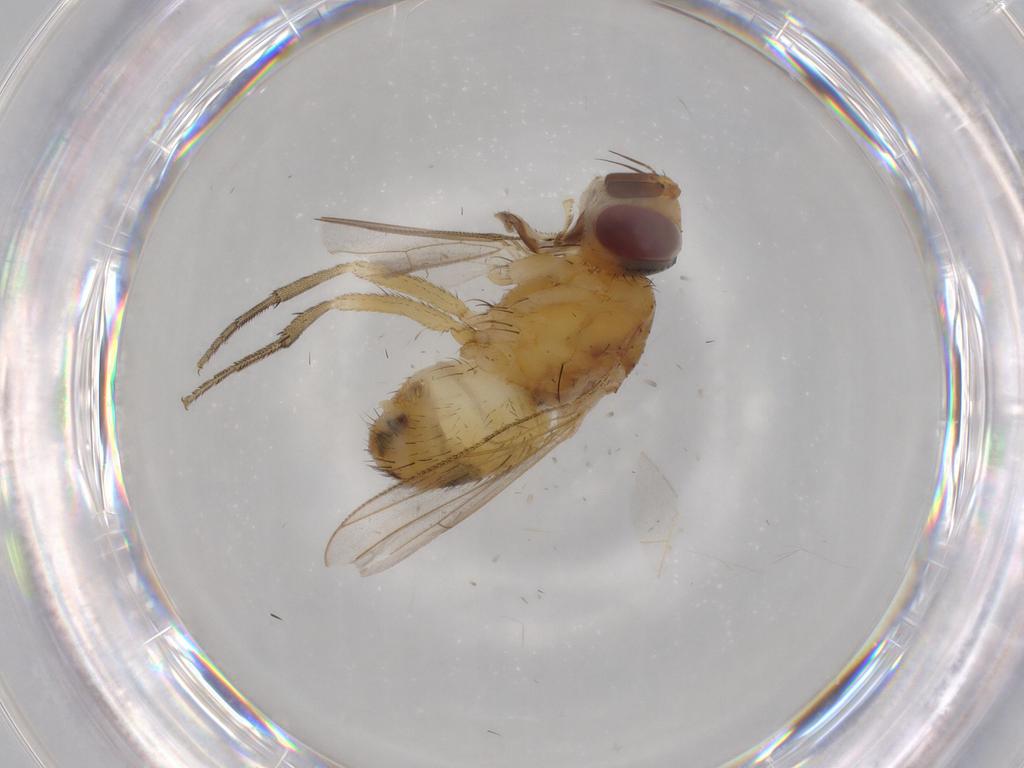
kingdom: Animalia
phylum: Arthropoda
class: Insecta
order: Diptera
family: Muscidae
